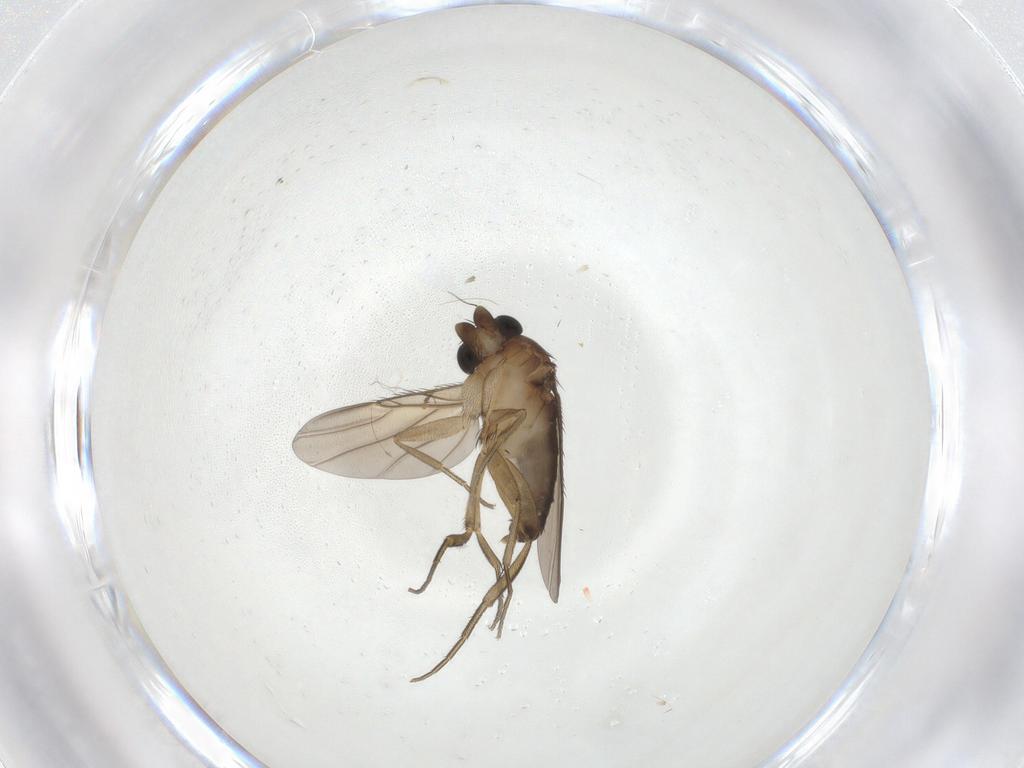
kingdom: Animalia
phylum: Arthropoda
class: Insecta
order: Diptera
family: Phoridae
